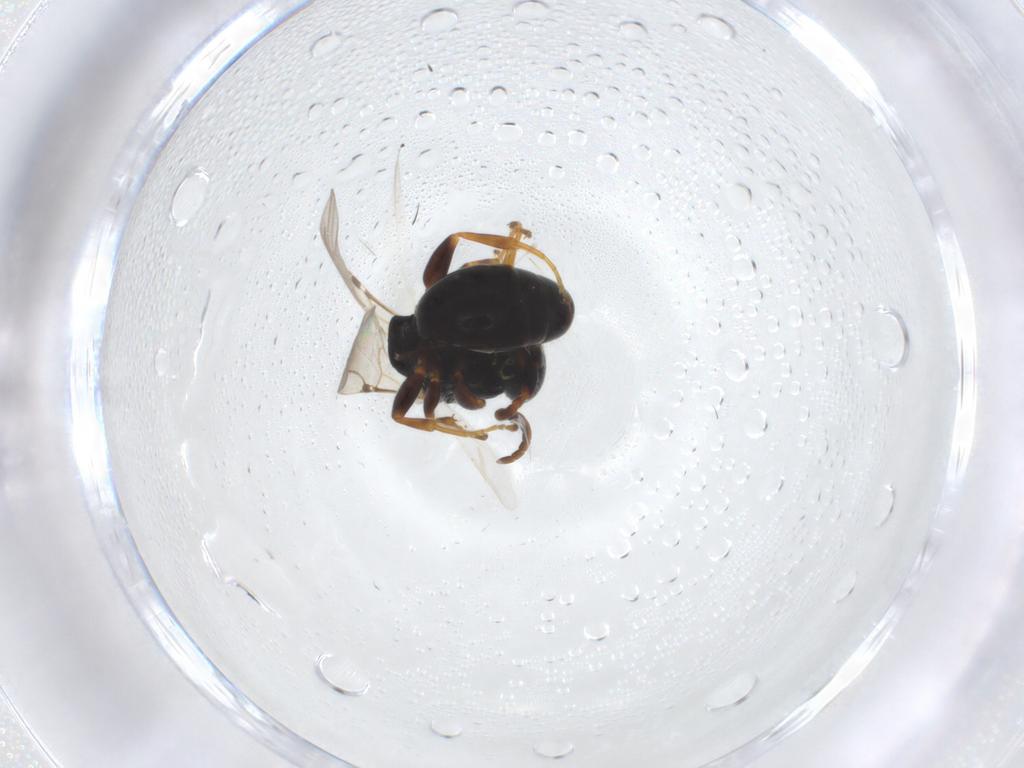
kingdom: Animalia
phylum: Arthropoda
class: Insecta
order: Hymenoptera
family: Bethylidae
